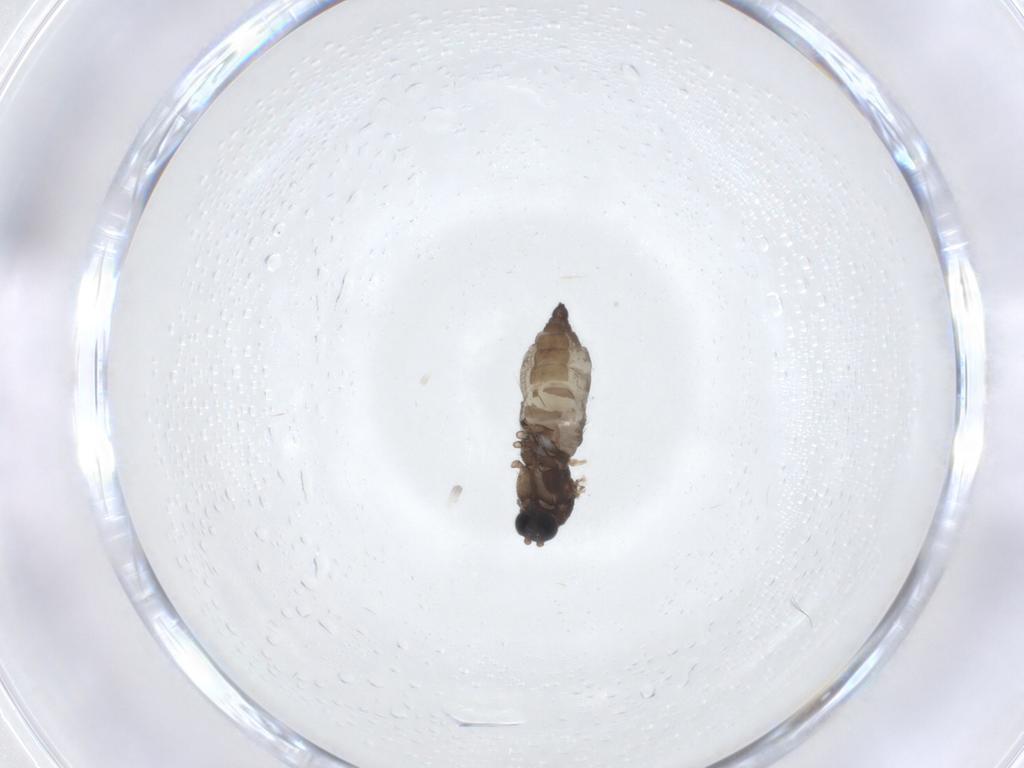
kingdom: Animalia
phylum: Arthropoda
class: Insecta
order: Diptera
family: Sciaridae
